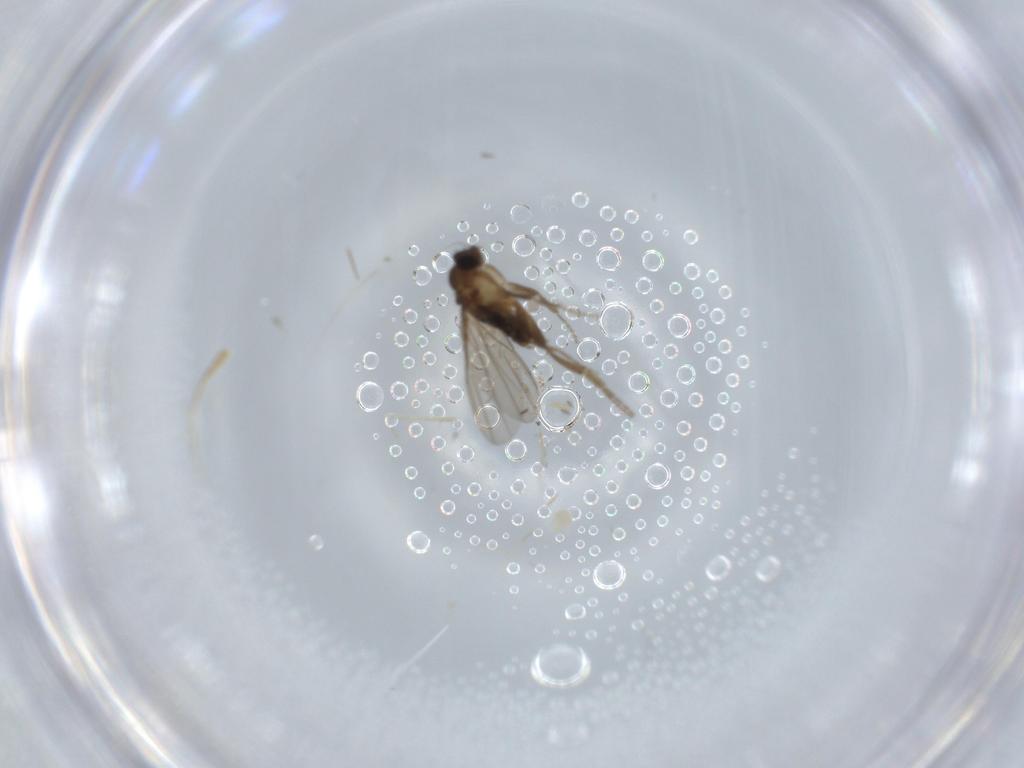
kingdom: Animalia
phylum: Arthropoda
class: Insecta
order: Diptera
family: Phoridae
